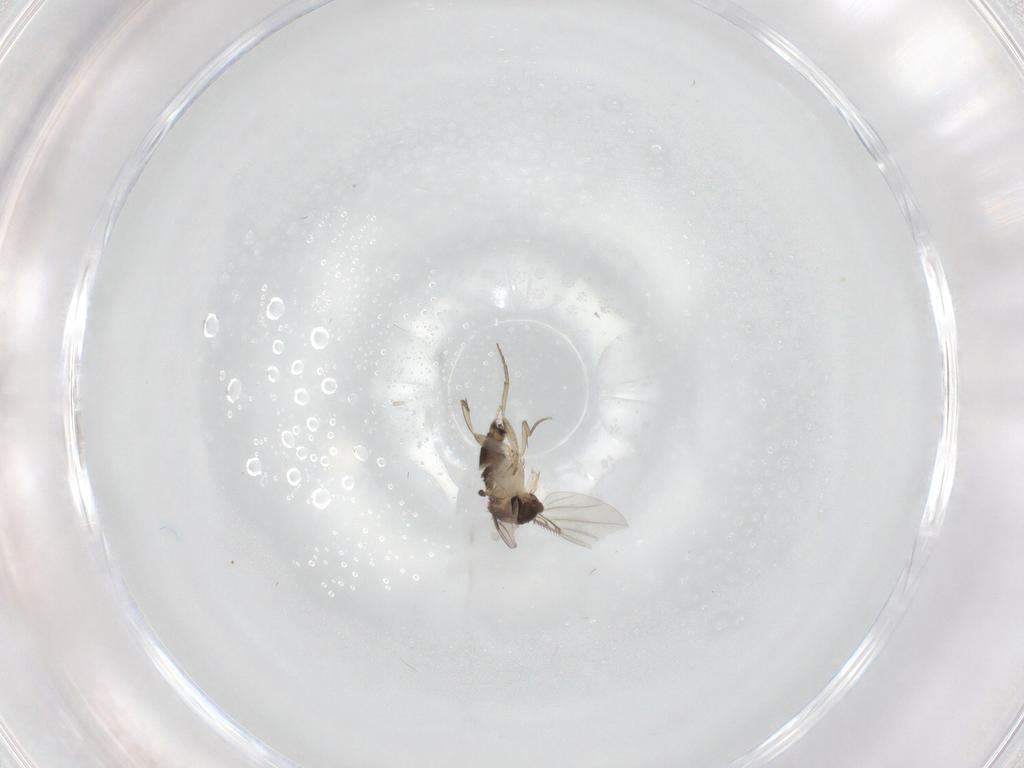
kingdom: Animalia
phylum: Arthropoda
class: Insecta
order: Diptera
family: Phoridae
